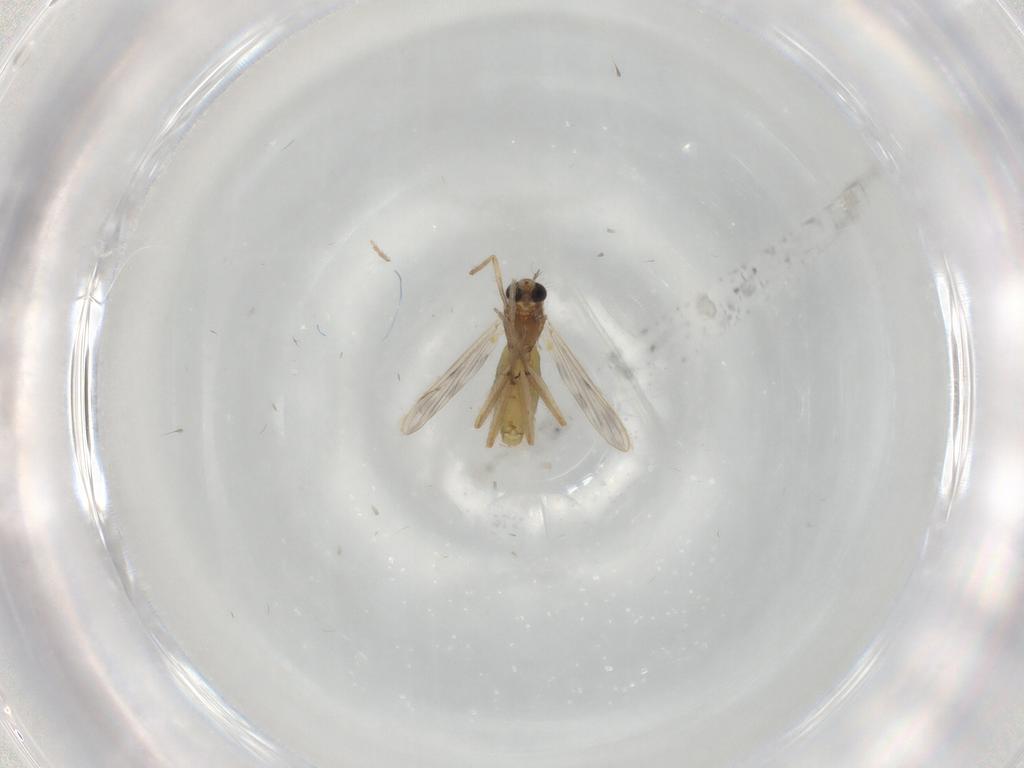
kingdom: Animalia
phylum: Arthropoda
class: Insecta
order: Diptera
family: Chironomidae
